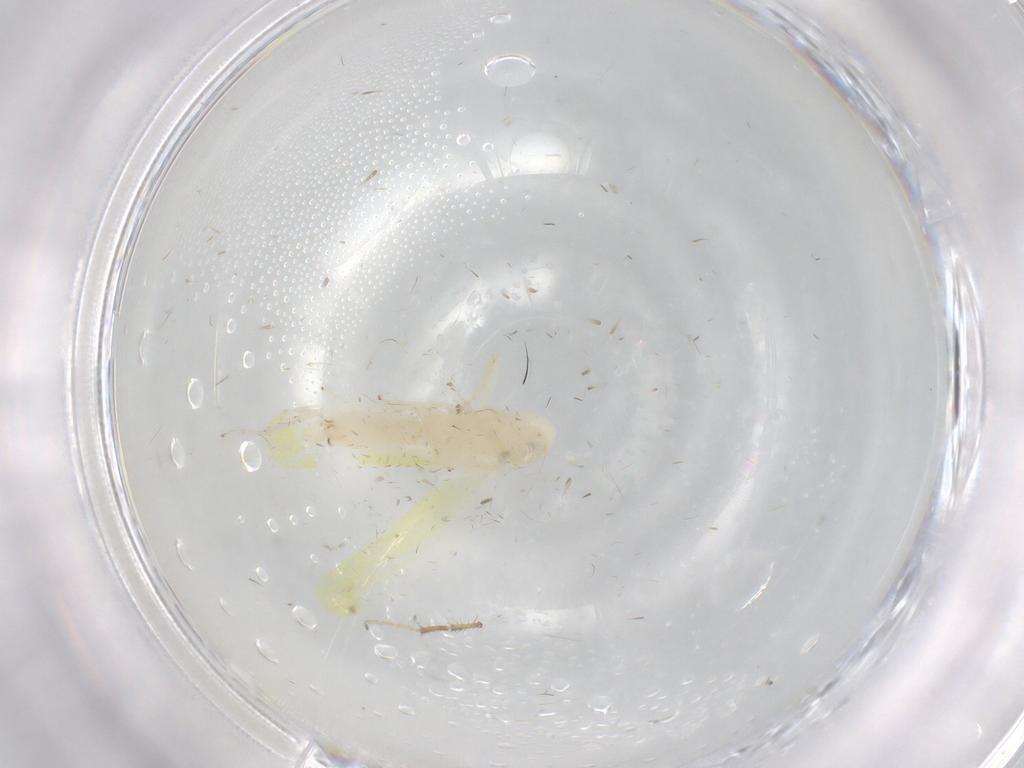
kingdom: Animalia
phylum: Arthropoda
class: Insecta
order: Hemiptera
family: Cicadellidae
